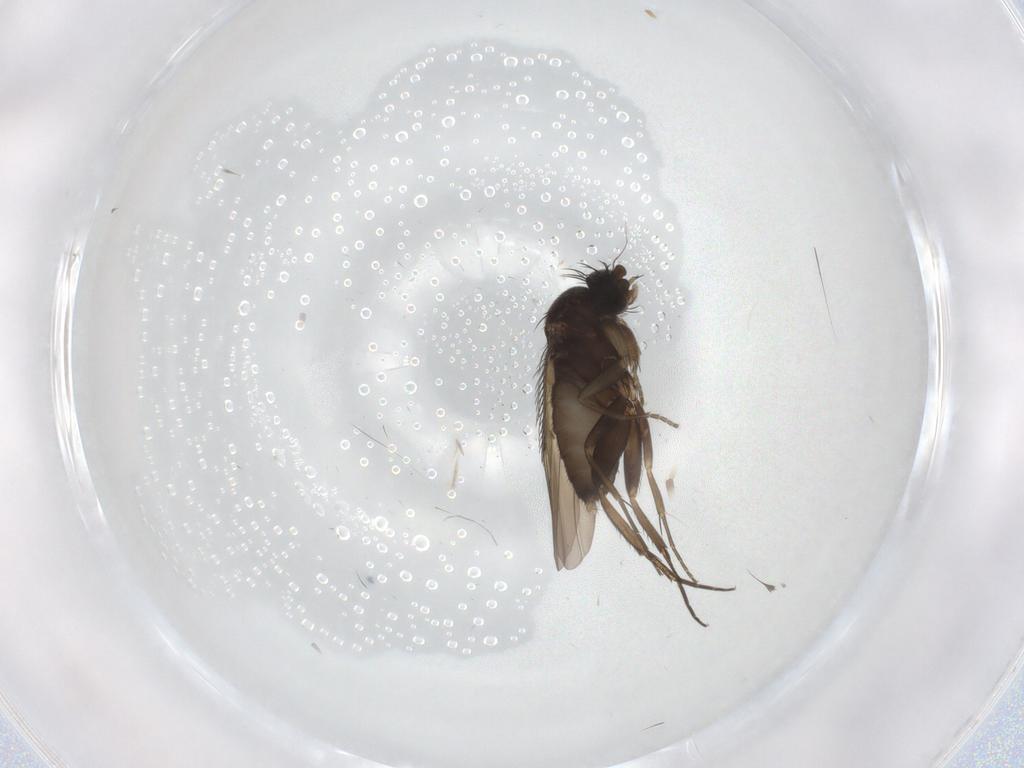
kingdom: Animalia
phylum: Arthropoda
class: Insecta
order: Diptera
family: Phoridae
